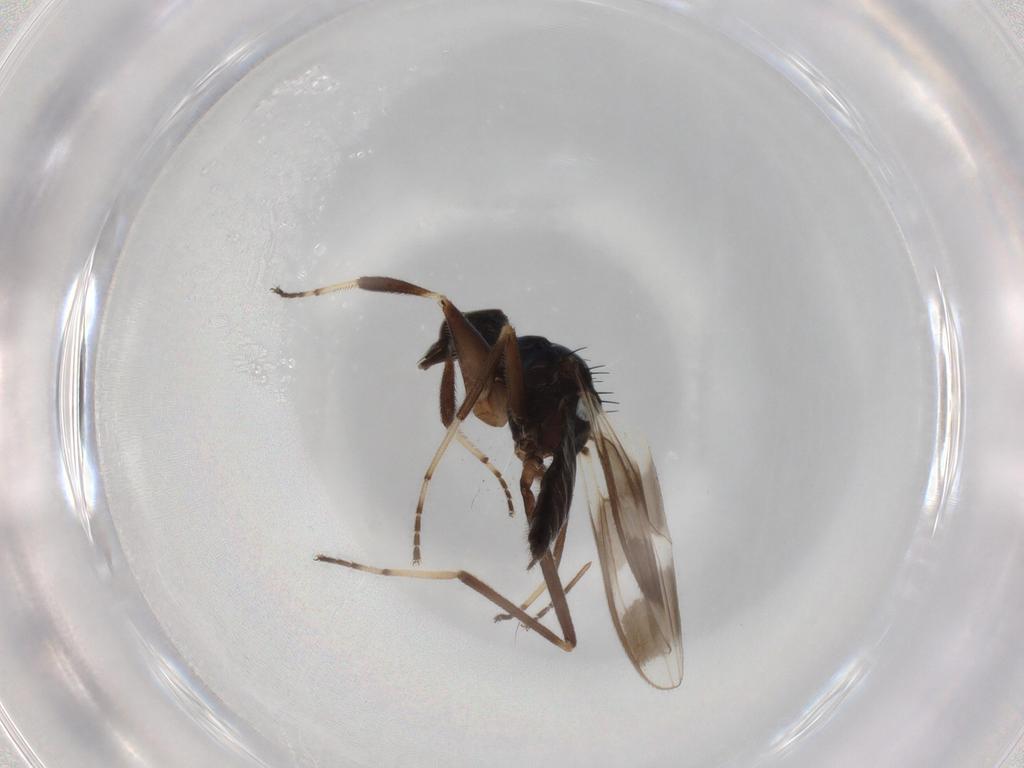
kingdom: Animalia
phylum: Arthropoda
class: Insecta
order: Diptera
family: Hybotidae
